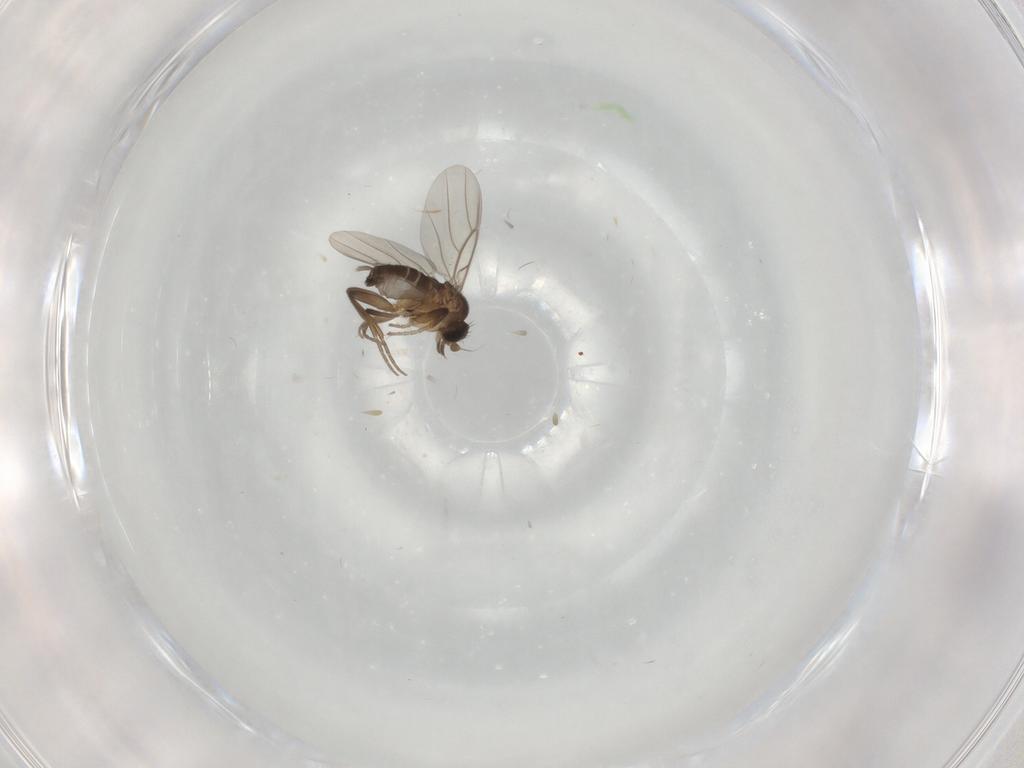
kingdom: Animalia
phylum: Arthropoda
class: Insecta
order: Diptera
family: Phoridae
